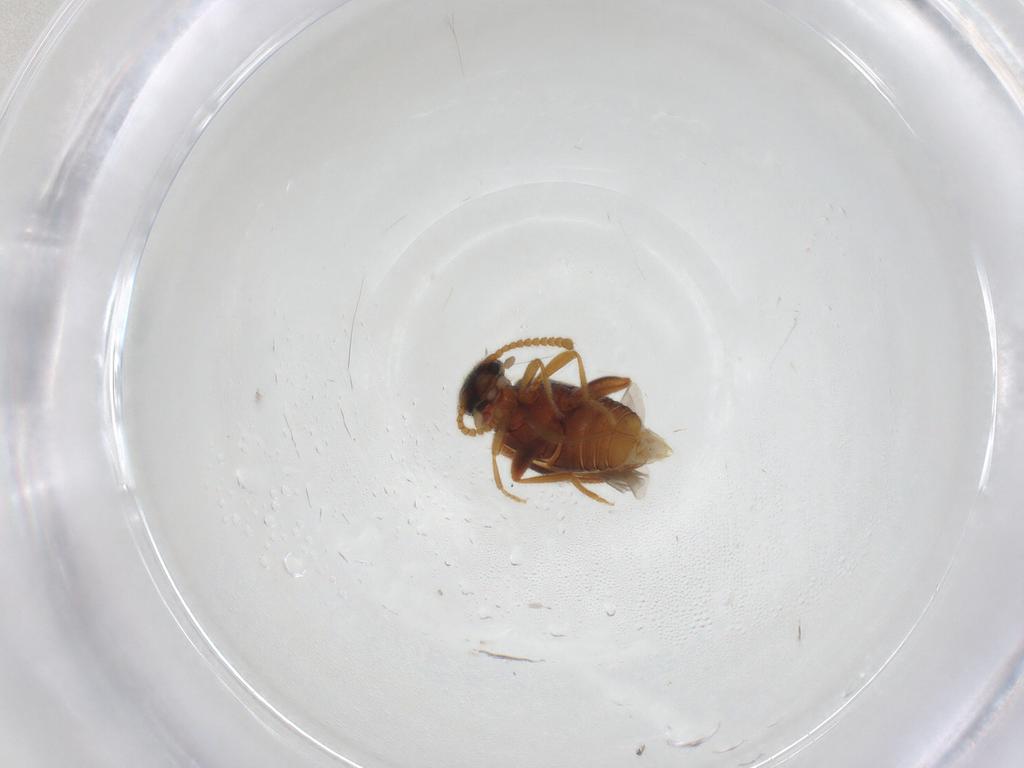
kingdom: Animalia
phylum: Arthropoda
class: Insecta
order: Coleoptera
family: Aderidae
